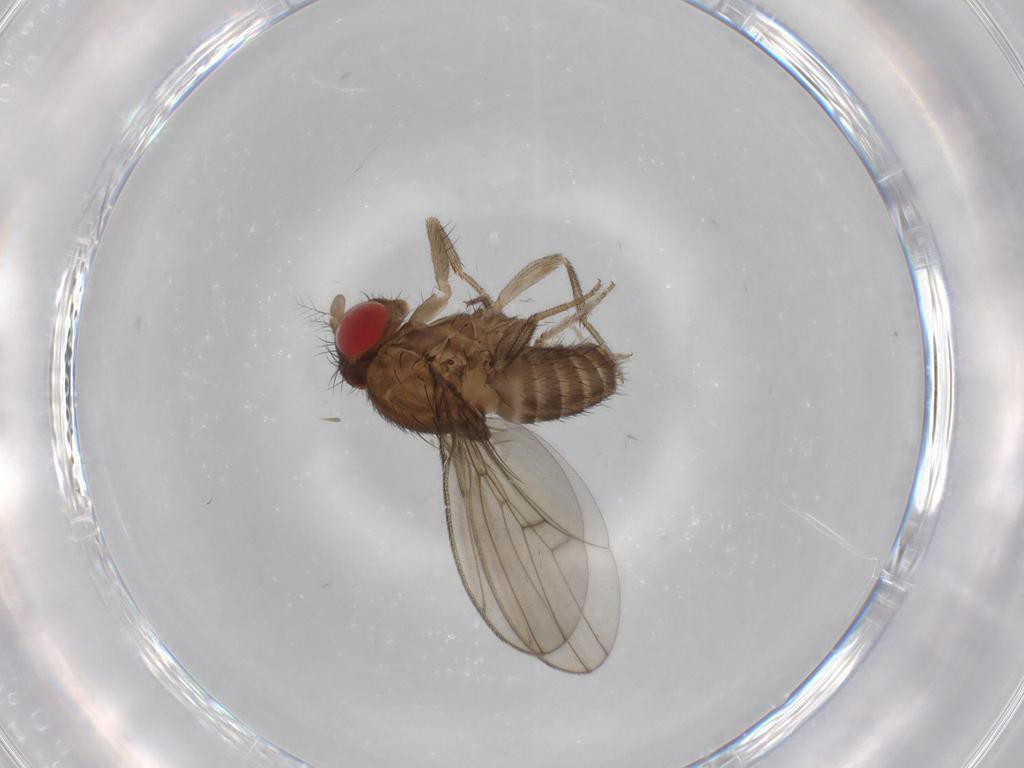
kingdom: Animalia
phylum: Arthropoda
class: Insecta
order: Diptera
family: Drosophilidae
